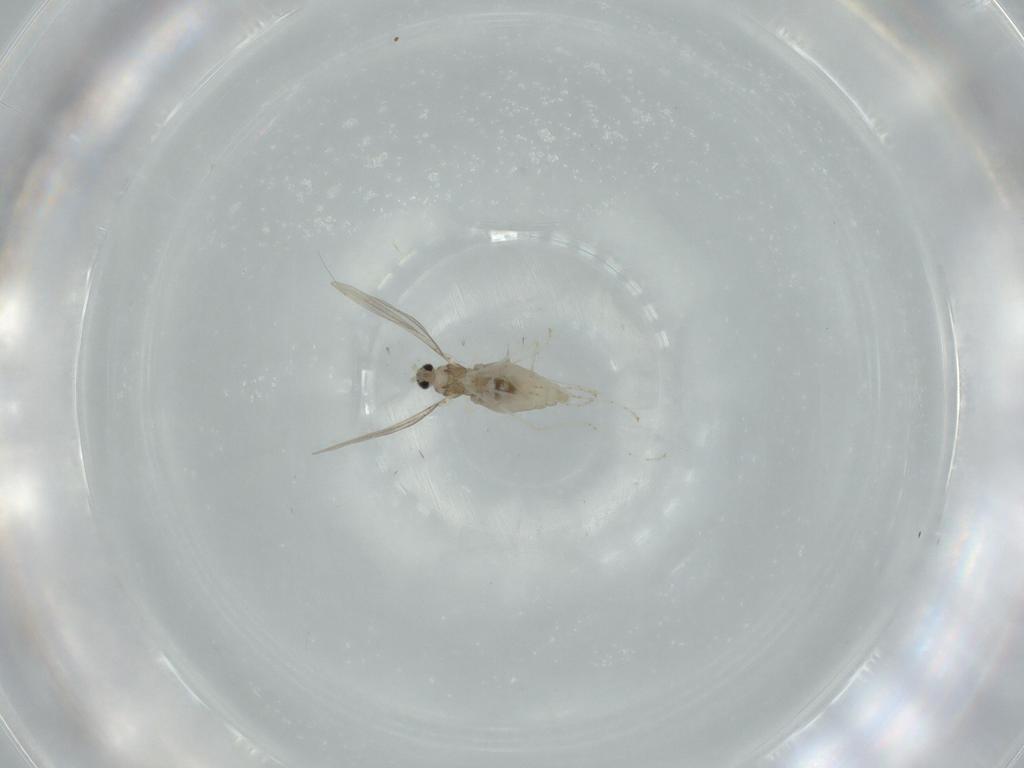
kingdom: Animalia
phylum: Arthropoda
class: Insecta
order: Diptera
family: Cecidomyiidae
